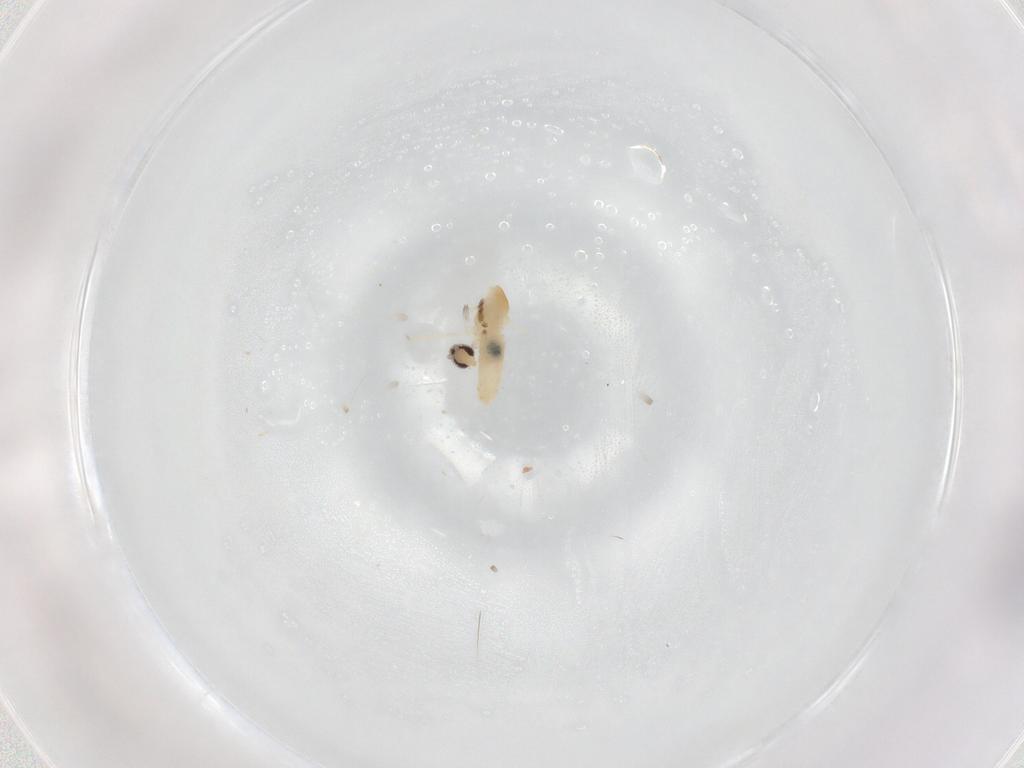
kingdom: Animalia
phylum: Arthropoda
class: Insecta
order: Diptera
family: Cecidomyiidae
